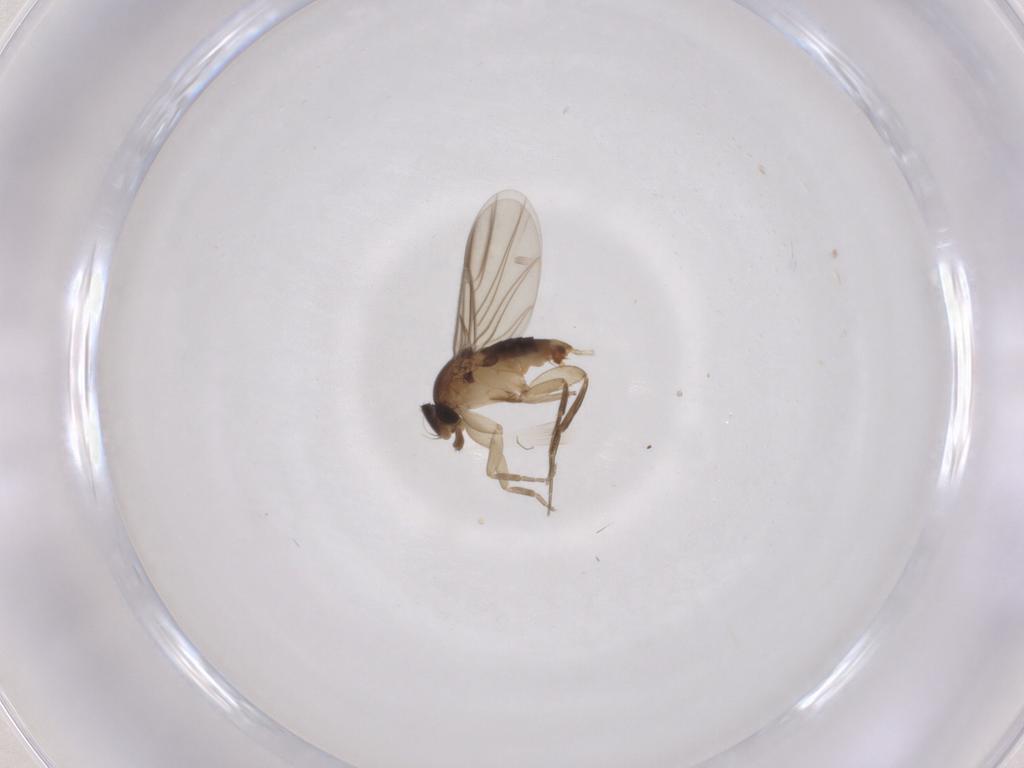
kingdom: Animalia
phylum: Arthropoda
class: Insecta
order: Diptera
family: Phoridae
